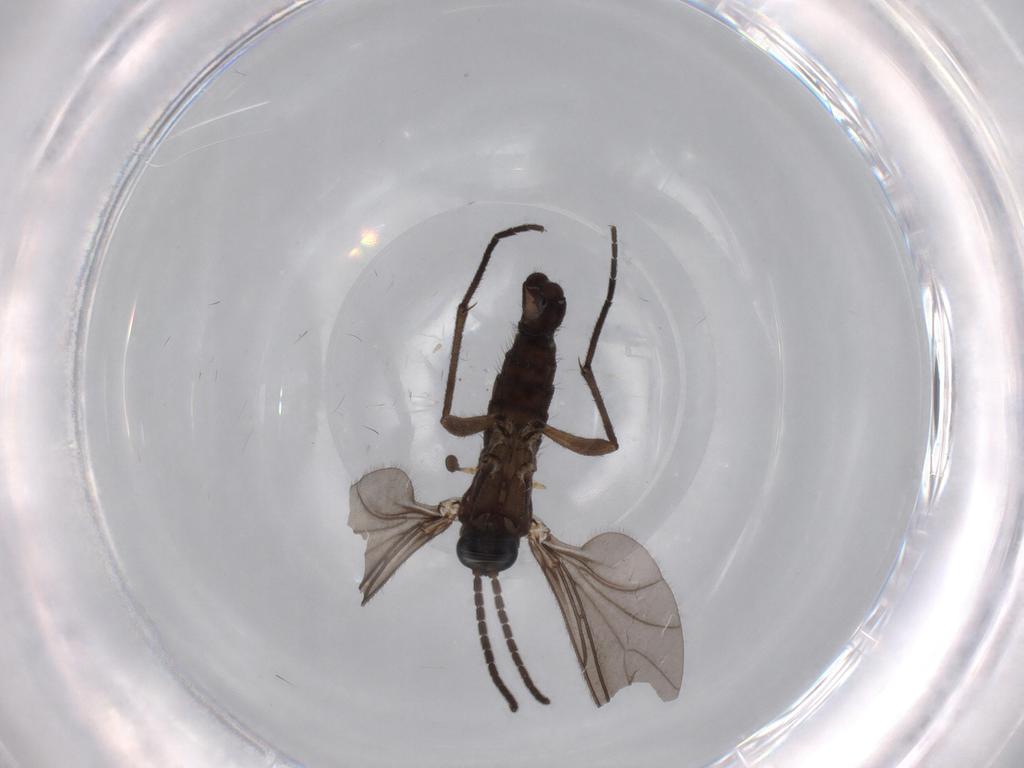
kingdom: Animalia
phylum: Arthropoda
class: Insecta
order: Diptera
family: Sciaridae
